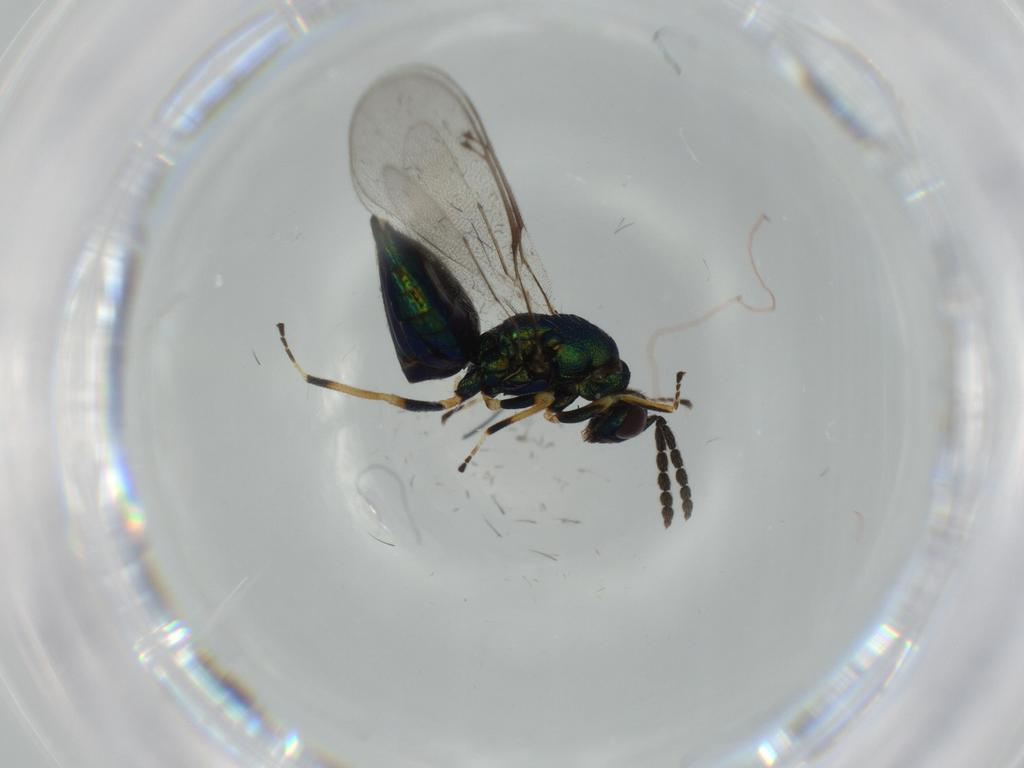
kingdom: Animalia
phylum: Arthropoda
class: Insecta
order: Hymenoptera
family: Eulophidae
